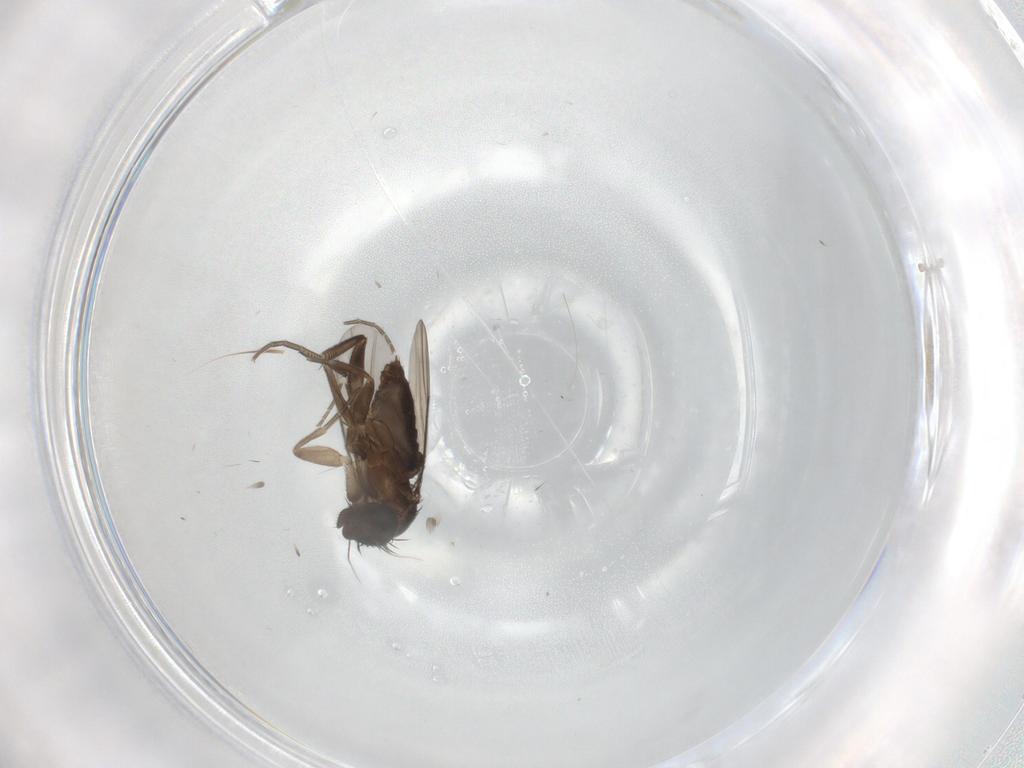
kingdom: Animalia
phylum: Arthropoda
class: Insecta
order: Diptera
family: Phoridae
